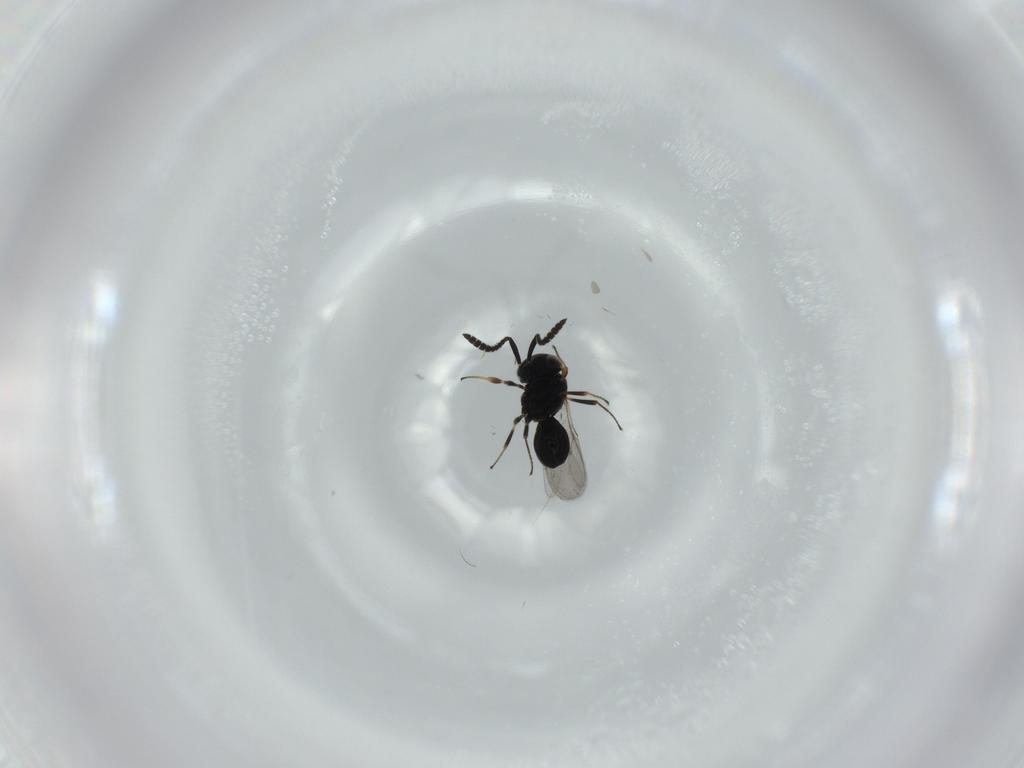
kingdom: Animalia
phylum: Arthropoda
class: Insecta
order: Hymenoptera
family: Scelionidae
